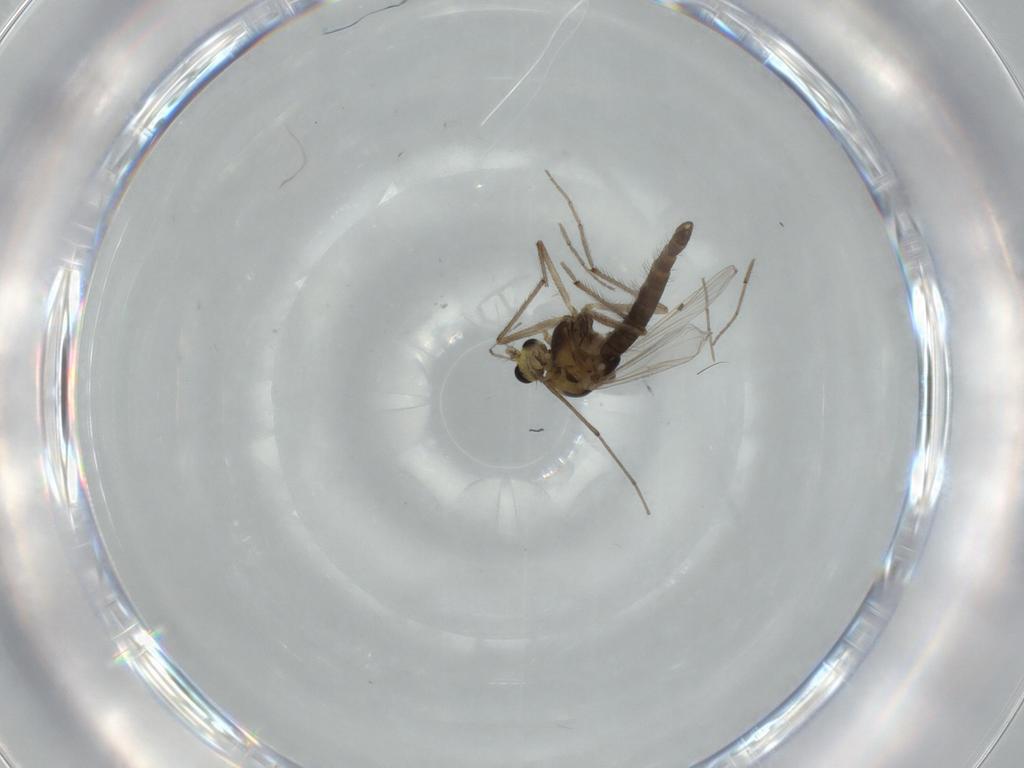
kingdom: Animalia
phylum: Arthropoda
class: Insecta
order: Diptera
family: Chironomidae
